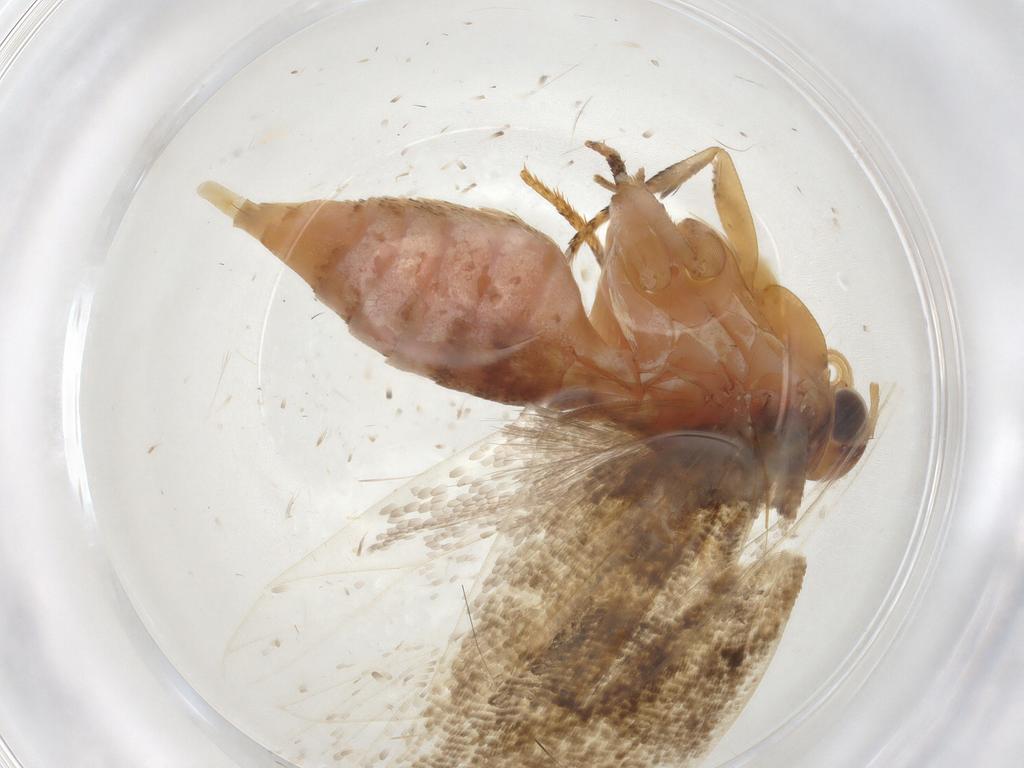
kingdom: Animalia
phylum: Arthropoda
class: Insecta
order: Lepidoptera
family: Gelechiidae
